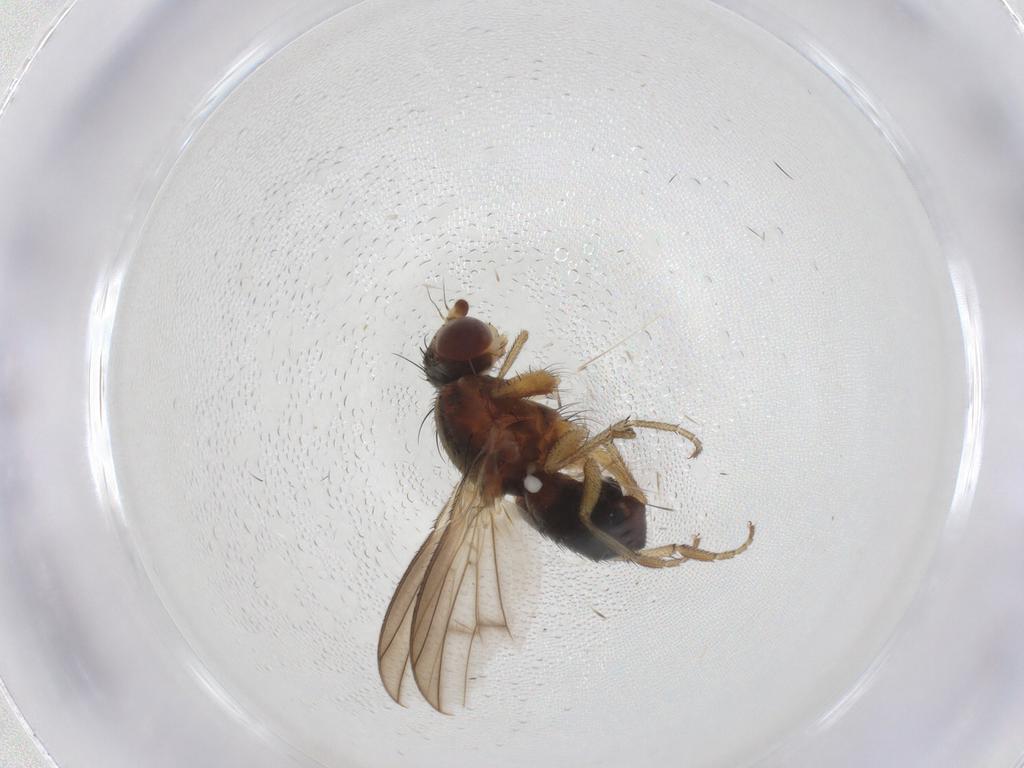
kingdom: Animalia
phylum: Arthropoda
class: Insecta
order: Diptera
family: Heleomyzidae
